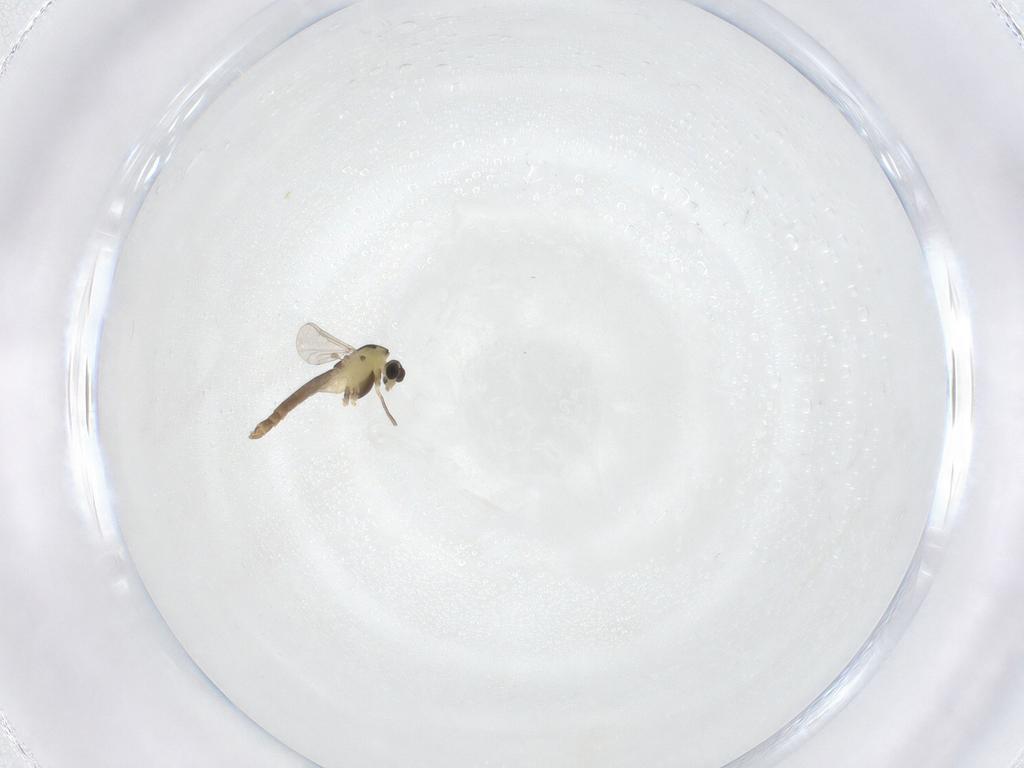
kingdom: Animalia
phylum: Arthropoda
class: Insecta
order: Diptera
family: Chironomidae
